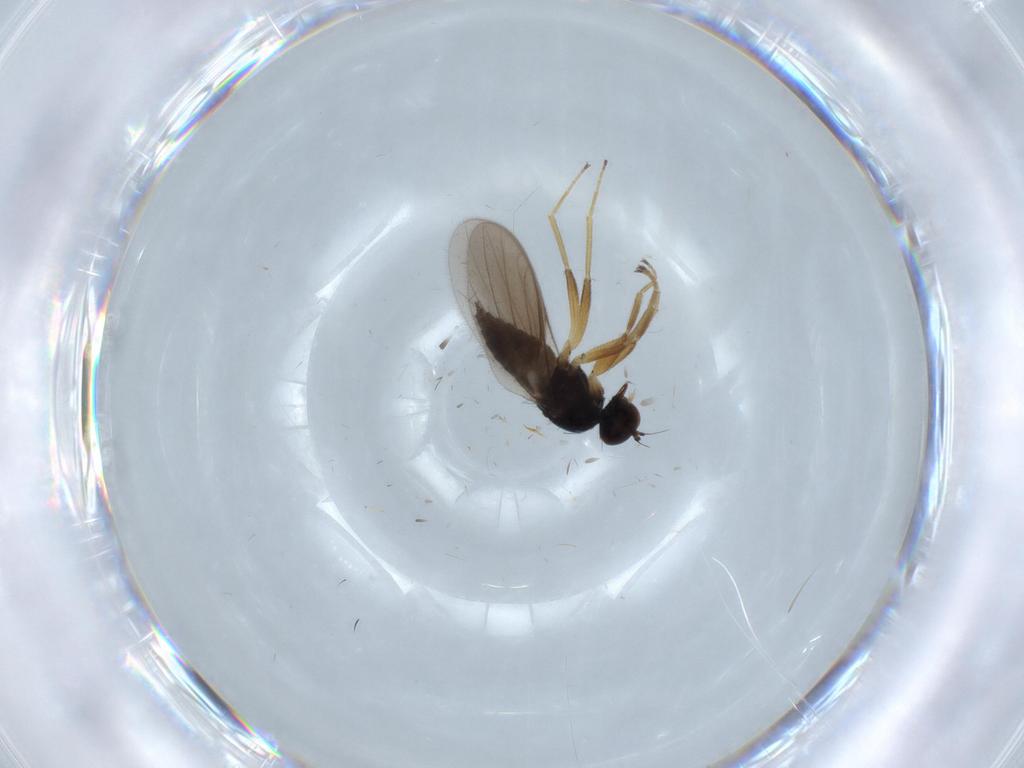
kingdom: Animalia
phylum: Arthropoda
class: Insecta
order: Diptera
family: Hybotidae
